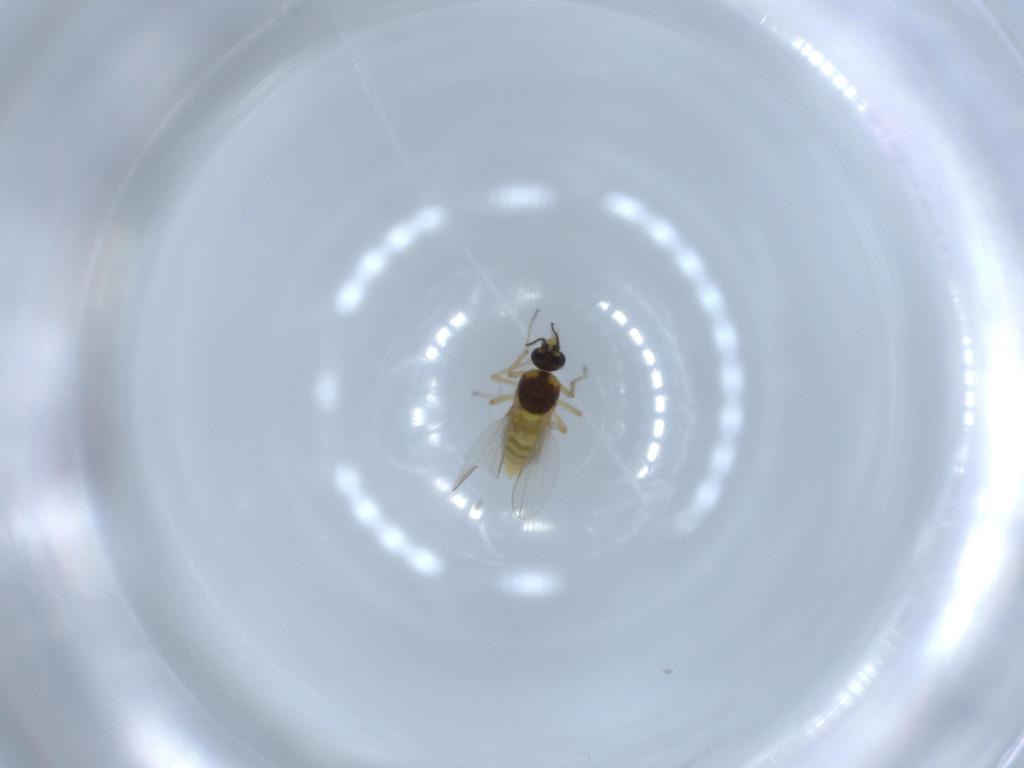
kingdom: Animalia
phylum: Arthropoda
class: Insecta
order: Diptera
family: Ceratopogonidae
